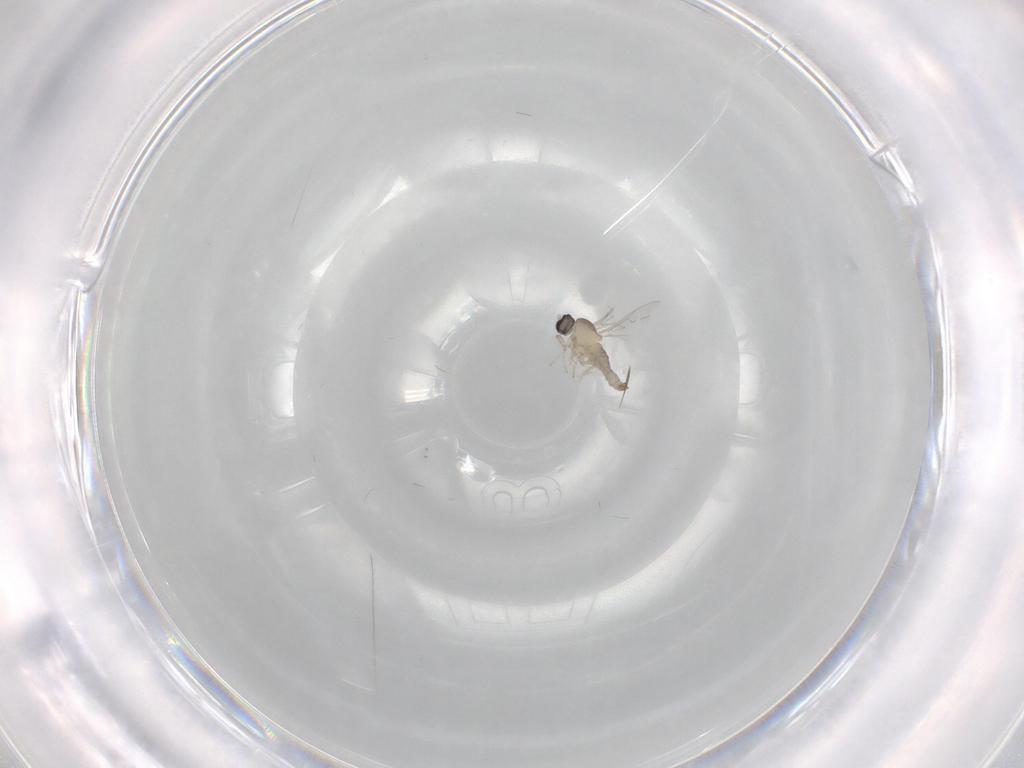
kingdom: Animalia
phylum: Arthropoda
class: Insecta
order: Diptera
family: Cecidomyiidae
